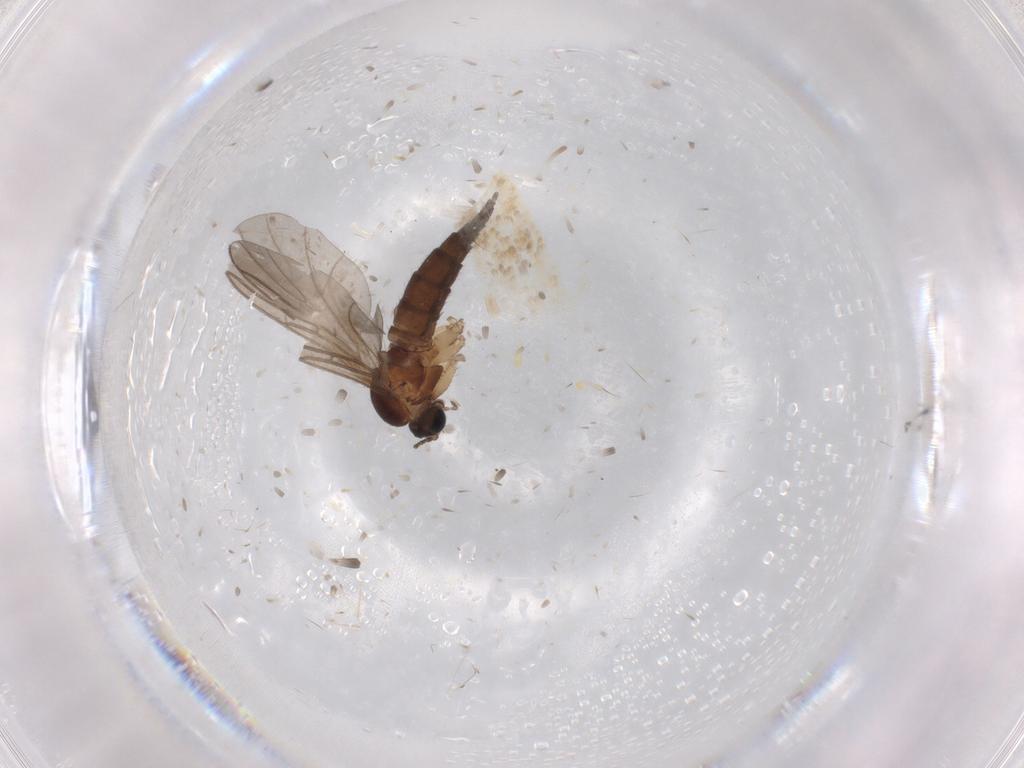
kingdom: Animalia
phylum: Arthropoda
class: Insecta
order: Diptera
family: Sciaridae
